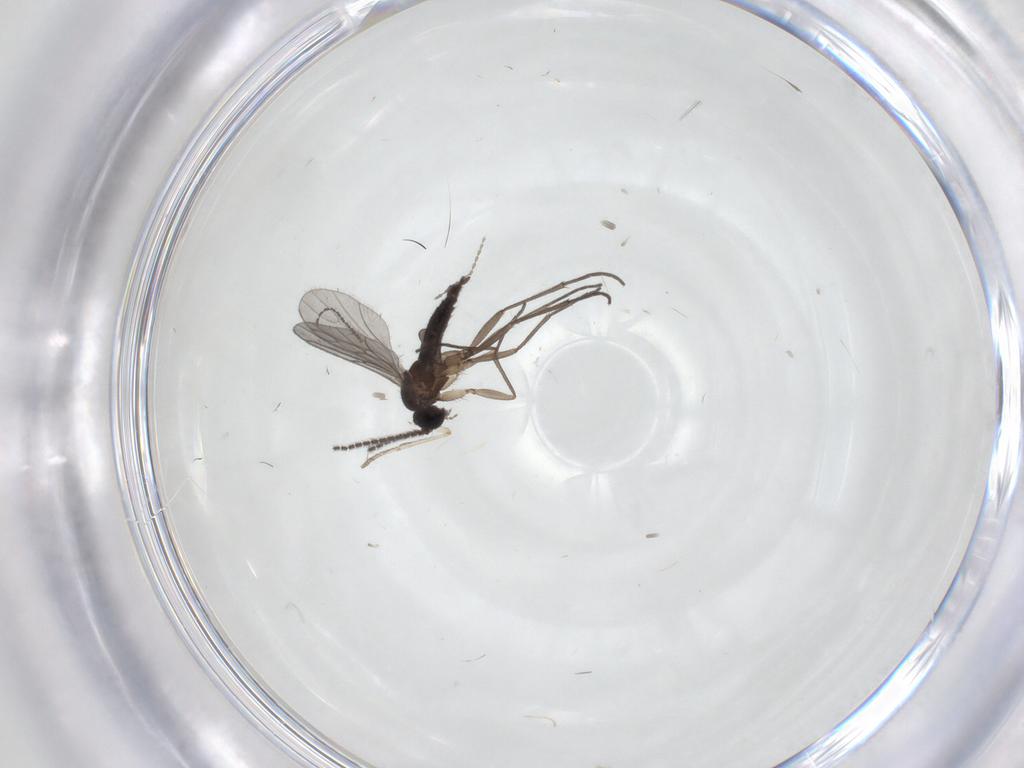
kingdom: Animalia
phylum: Arthropoda
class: Insecta
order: Diptera
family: Sciaridae
